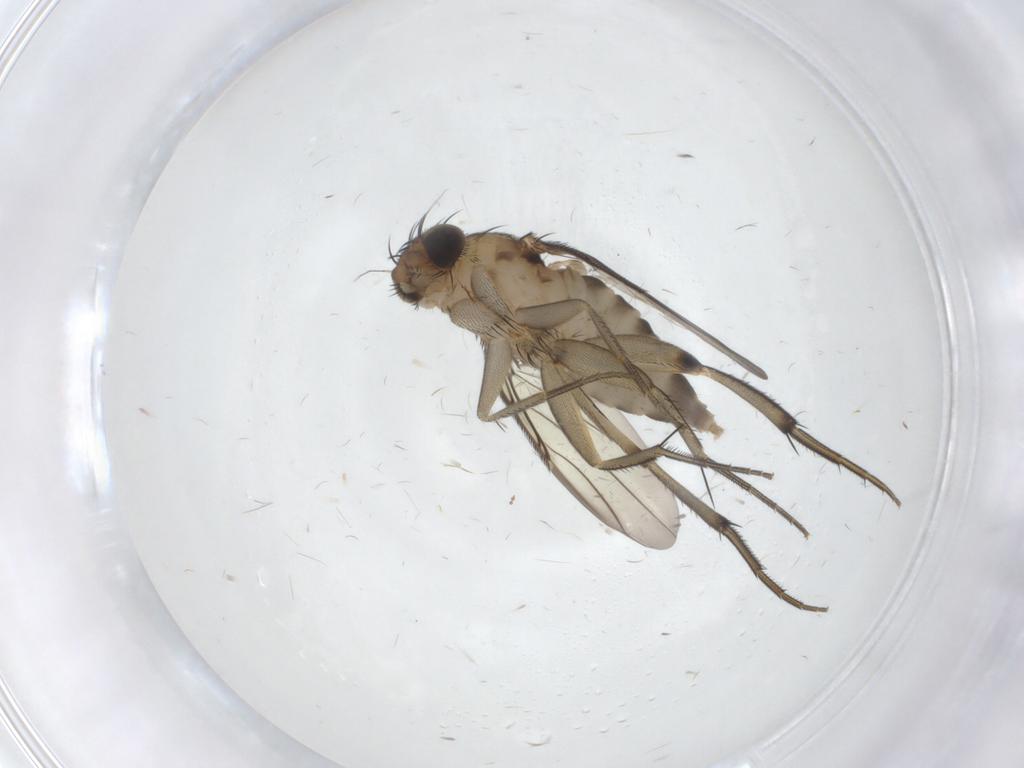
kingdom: Animalia
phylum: Arthropoda
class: Insecta
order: Diptera
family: Phoridae
